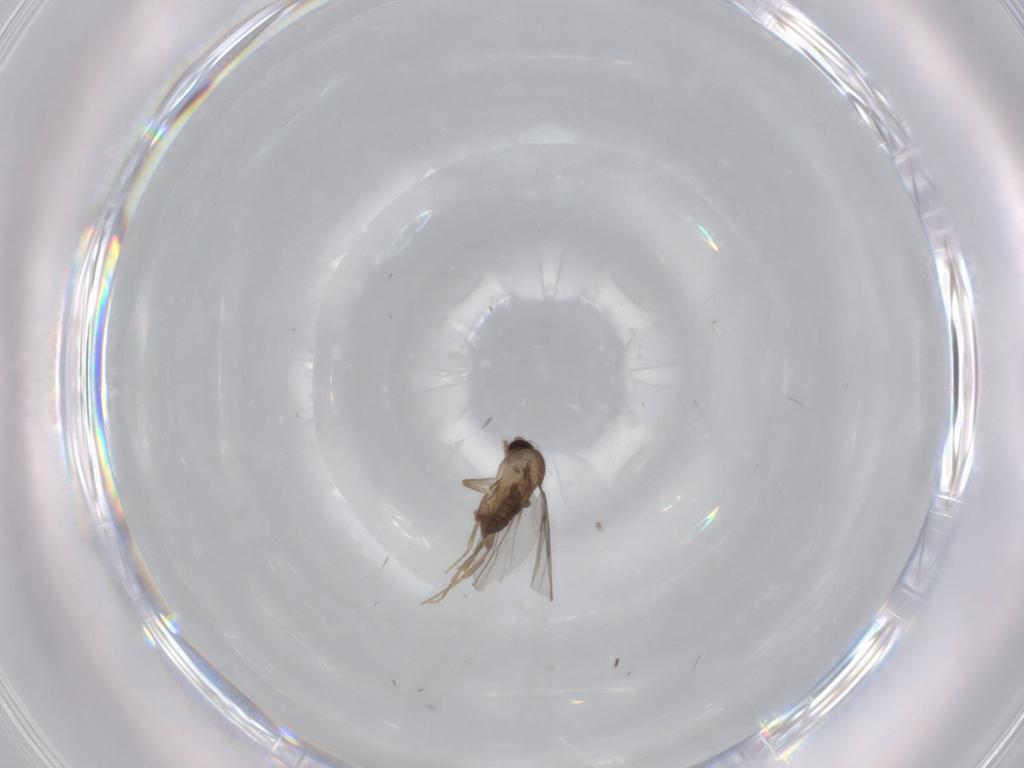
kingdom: Animalia
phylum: Arthropoda
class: Insecta
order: Diptera
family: Sciaridae
